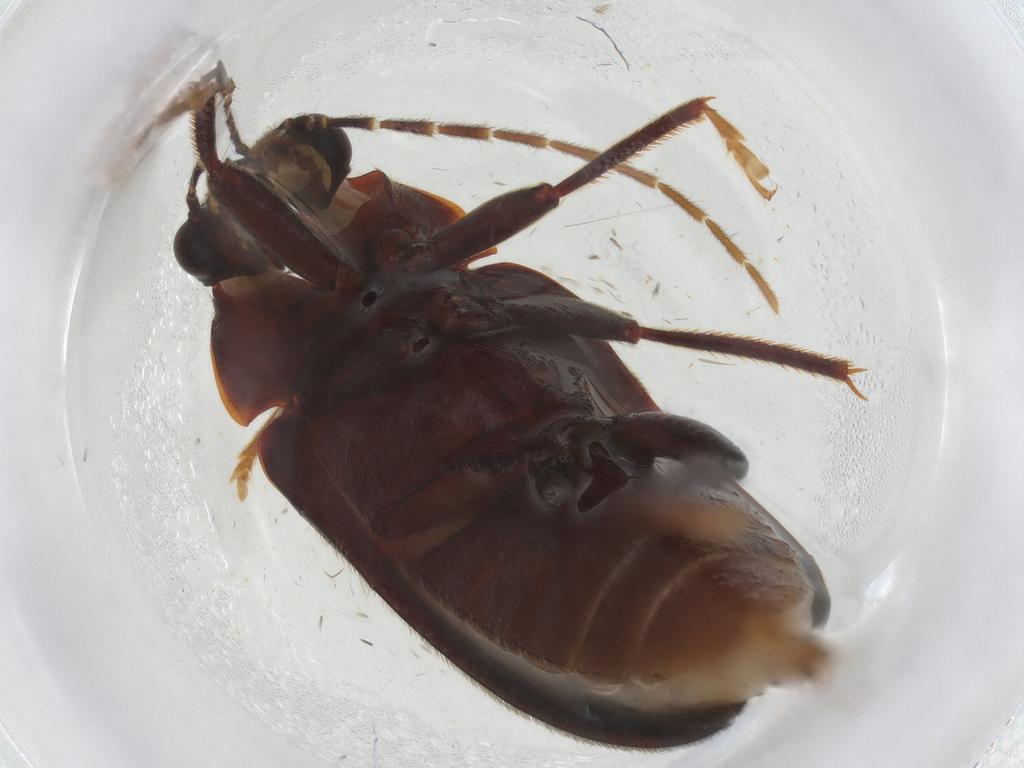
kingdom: Animalia
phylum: Arthropoda
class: Insecta
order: Coleoptera
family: Ptilodactylidae
